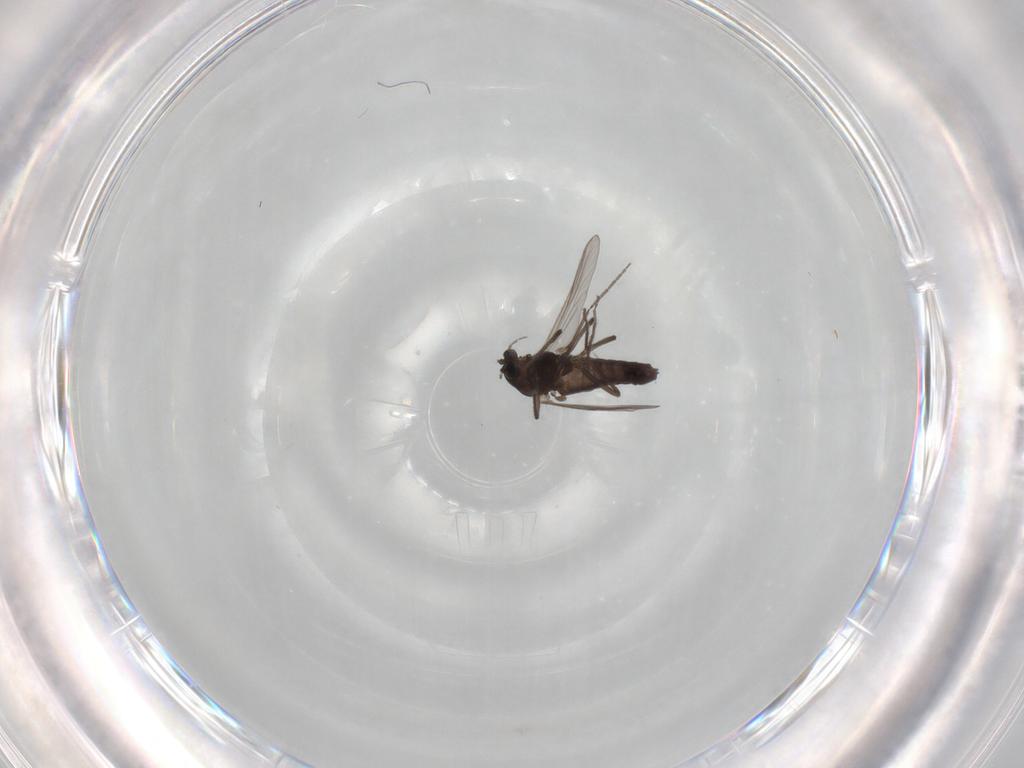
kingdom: Animalia
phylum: Arthropoda
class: Insecta
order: Diptera
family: Chironomidae
